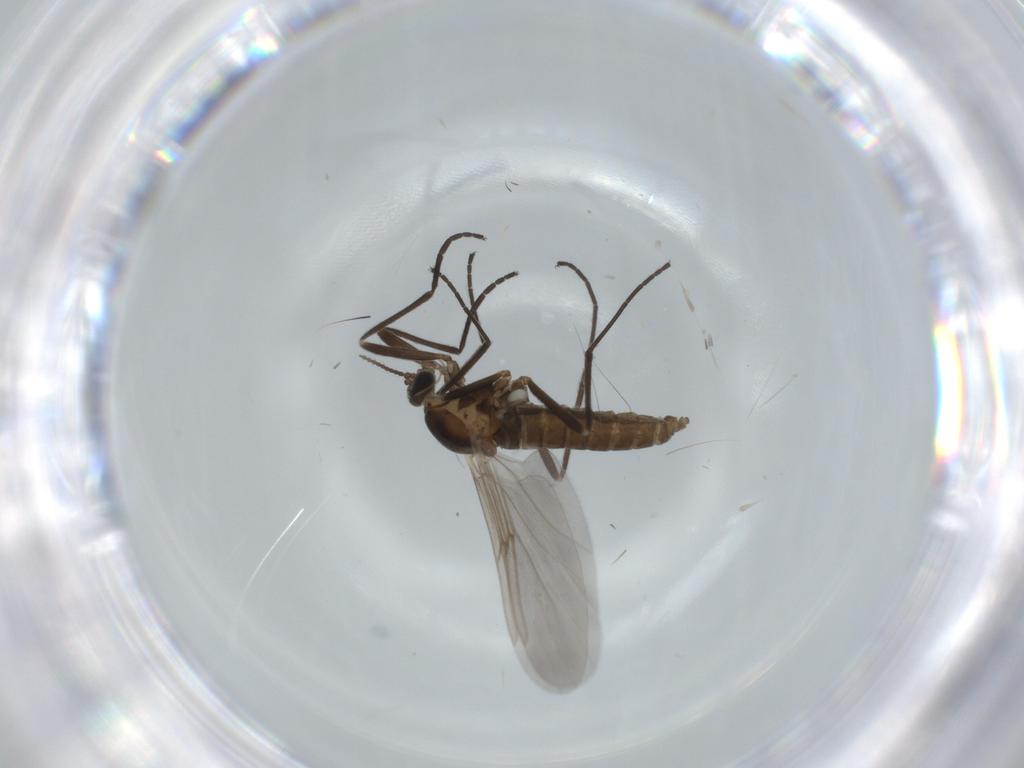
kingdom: Animalia
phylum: Arthropoda
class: Insecta
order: Diptera
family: Cecidomyiidae
